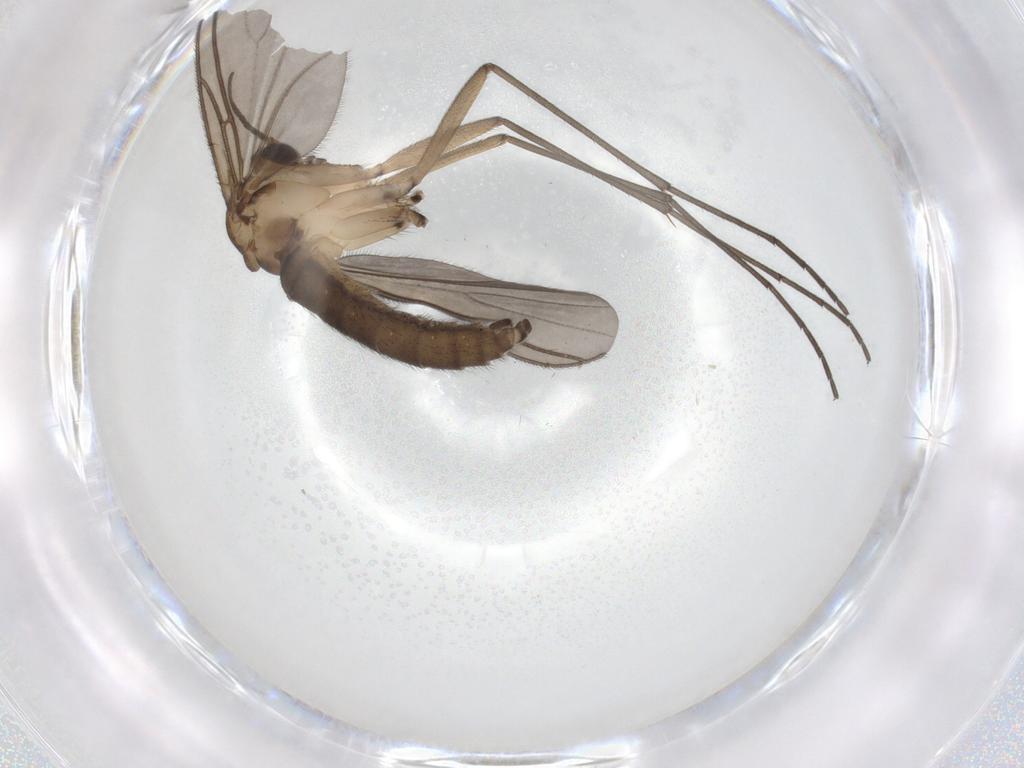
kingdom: Animalia
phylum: Arthropoda
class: Insecta
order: Diptera
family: Sciaridae
